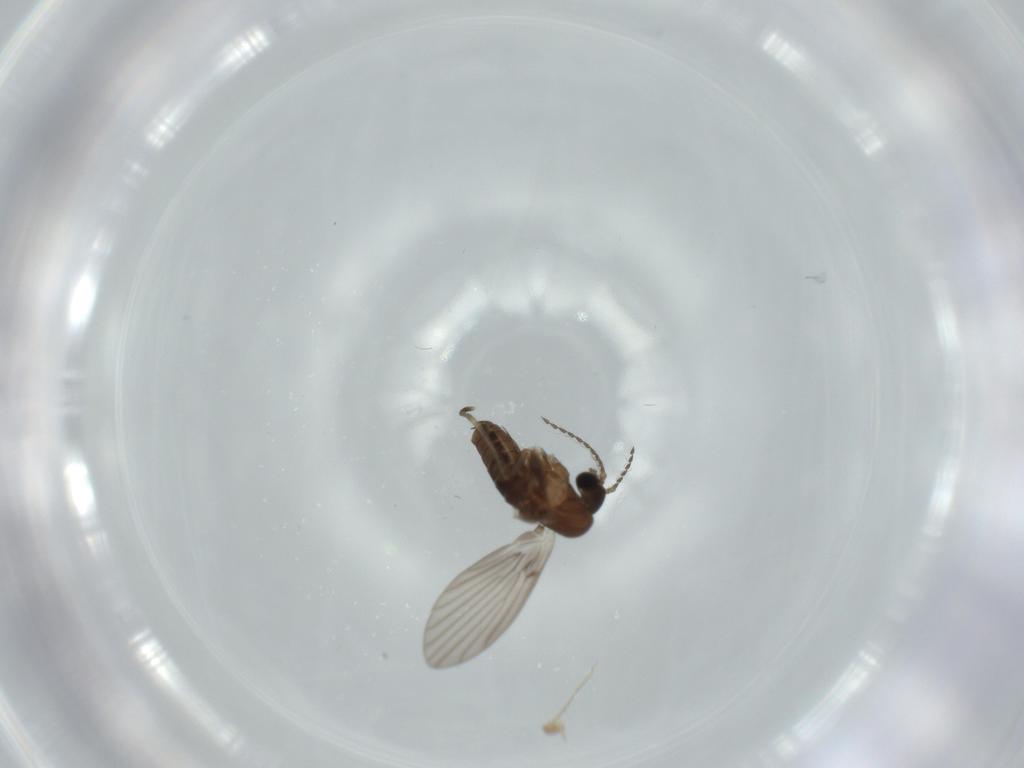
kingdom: Animalia
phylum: Arthropoda
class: Insecta
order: Diptera
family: Psychodidae
